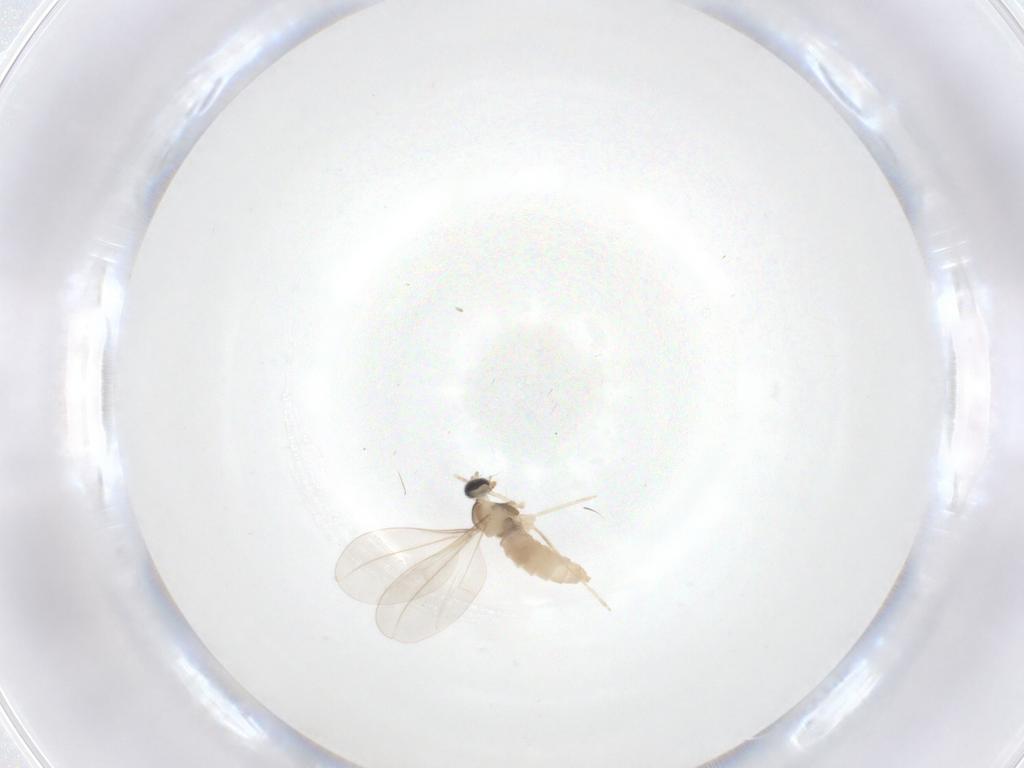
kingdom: Animalia
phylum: Arthropoda
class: Insecta
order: Diptera
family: Cecidomyiidae
